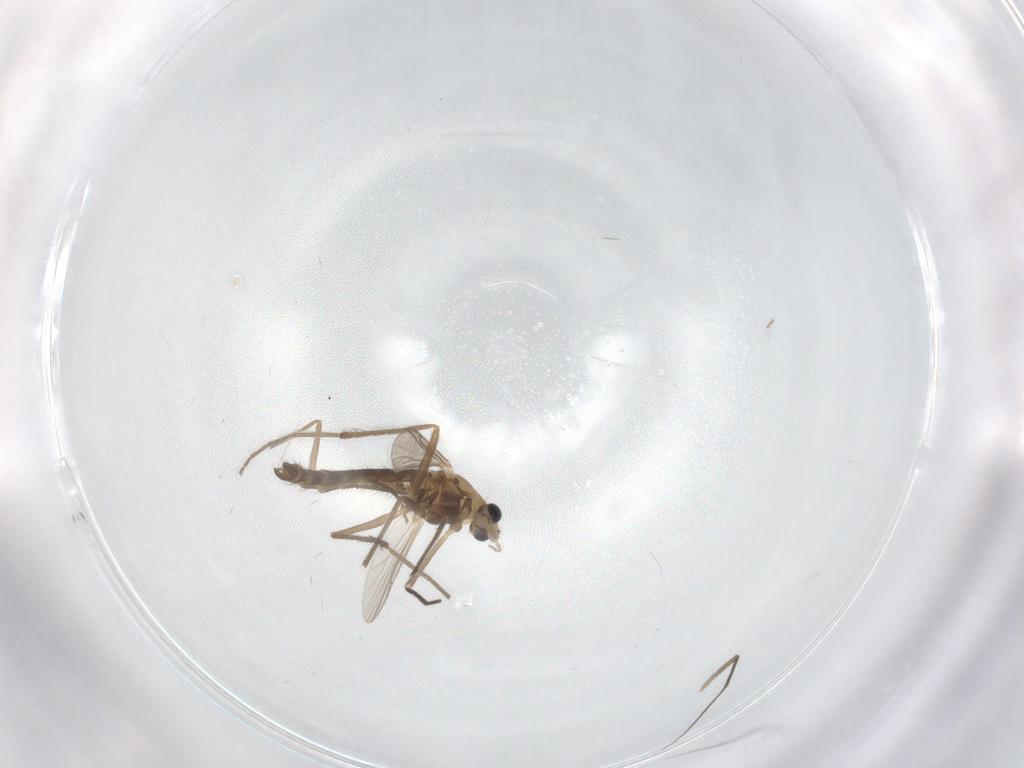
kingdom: Animalia
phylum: Arthropoda
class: Insecta
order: Diptera
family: Chironomidae
